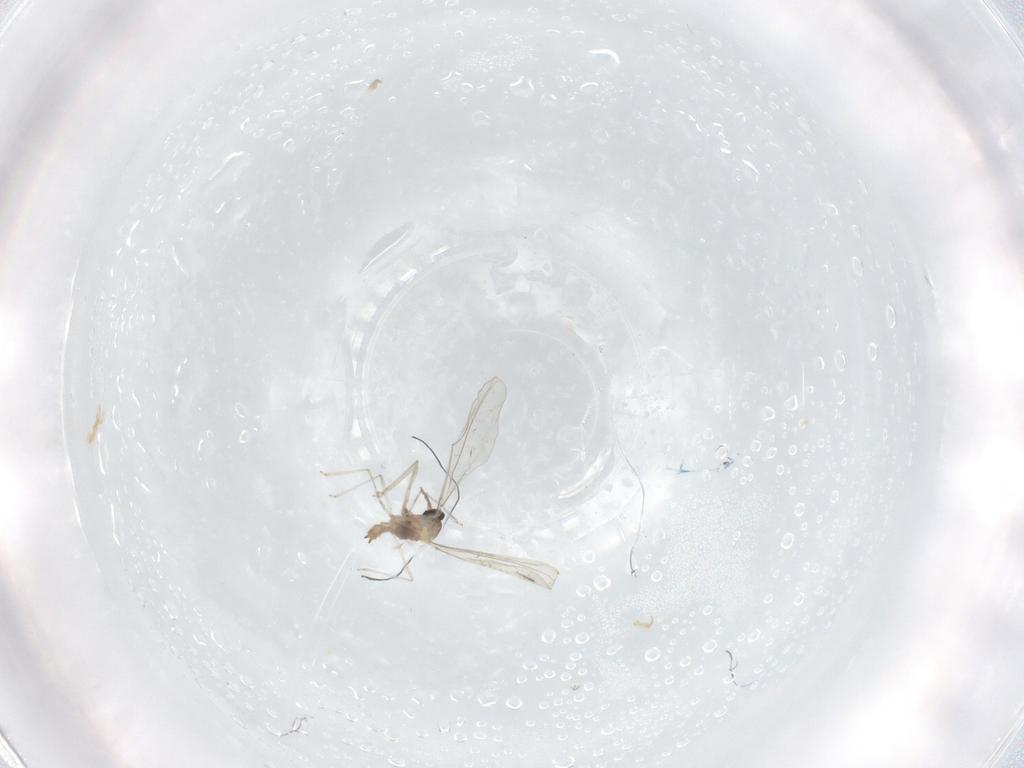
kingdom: Animalia
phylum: Arthropoda
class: Insecta
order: Diptera
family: Cecidomyiidae
